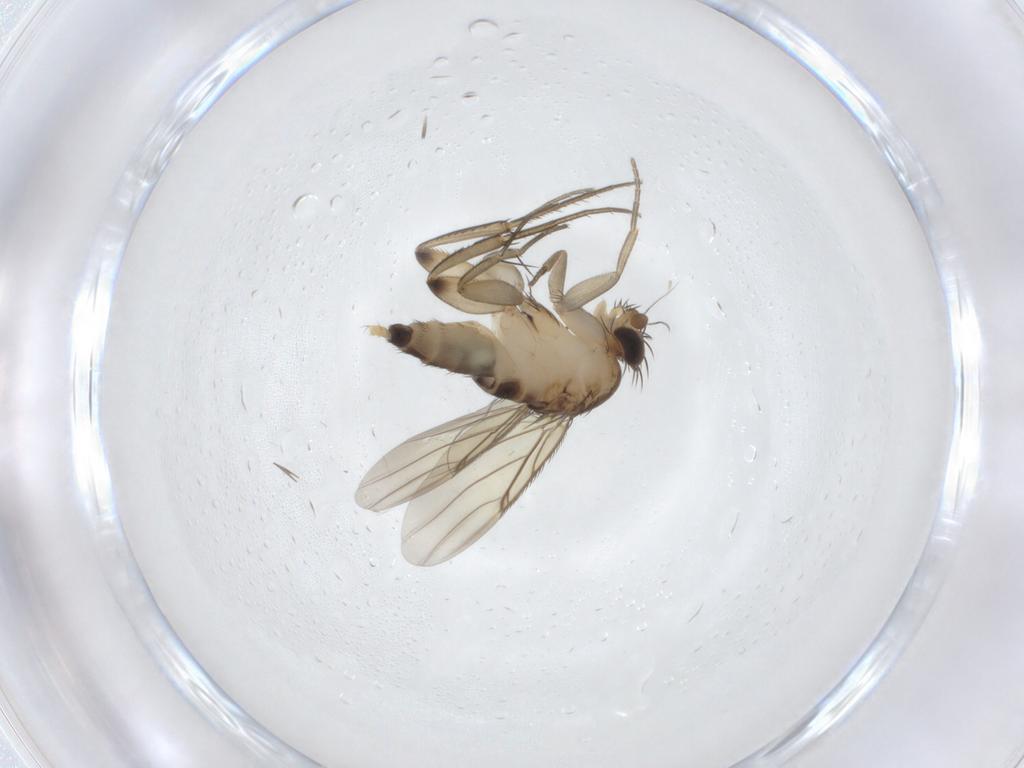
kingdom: Animalia
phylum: Arthropoda
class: Insecta
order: Diptera
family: Phoridae
